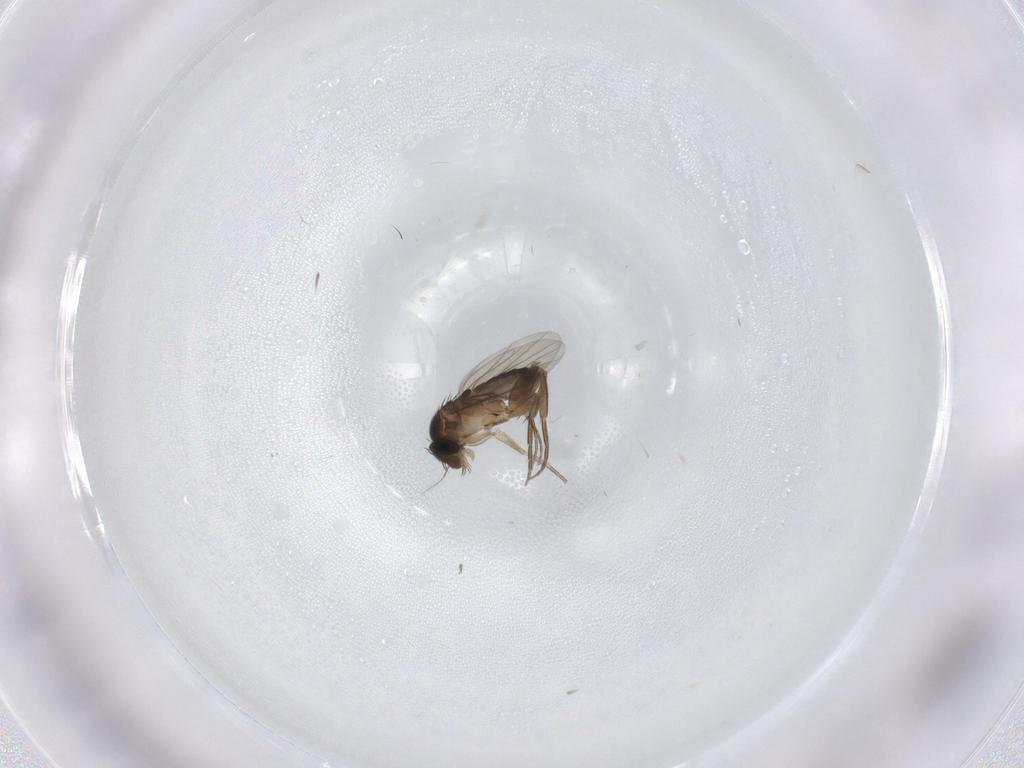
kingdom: Animalia
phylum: Arthropoda
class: Insecta
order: Diptera
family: Phoridae
